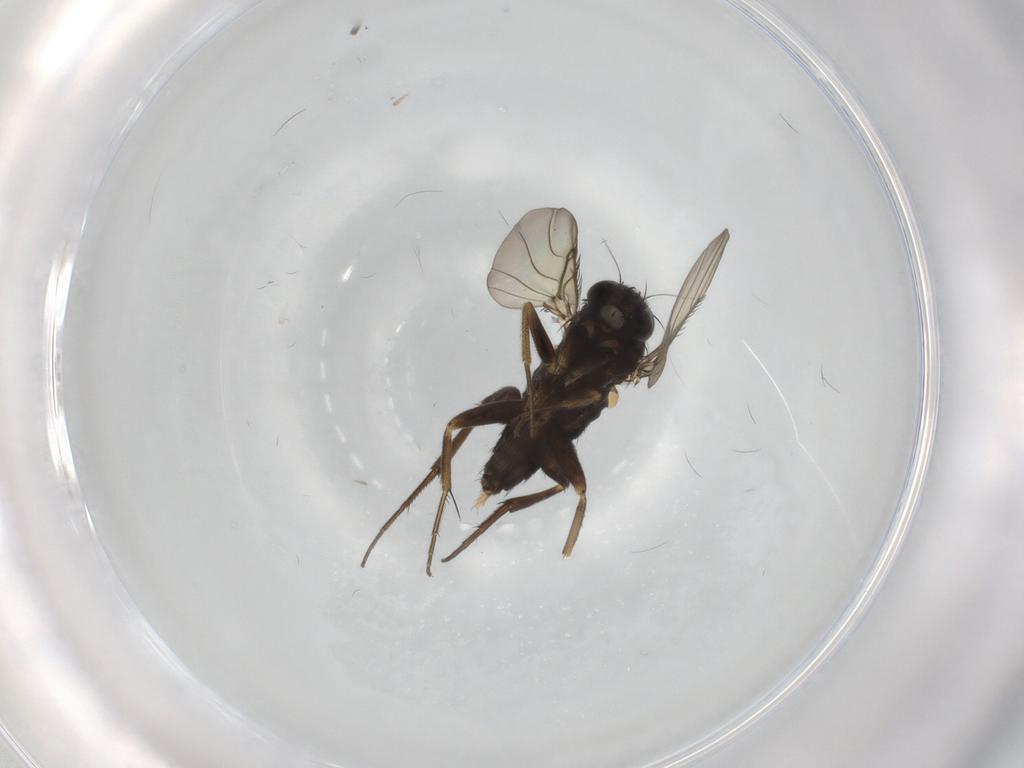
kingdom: Animalia
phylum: Arthropoda
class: Insecta
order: Diptera
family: Phoridae
